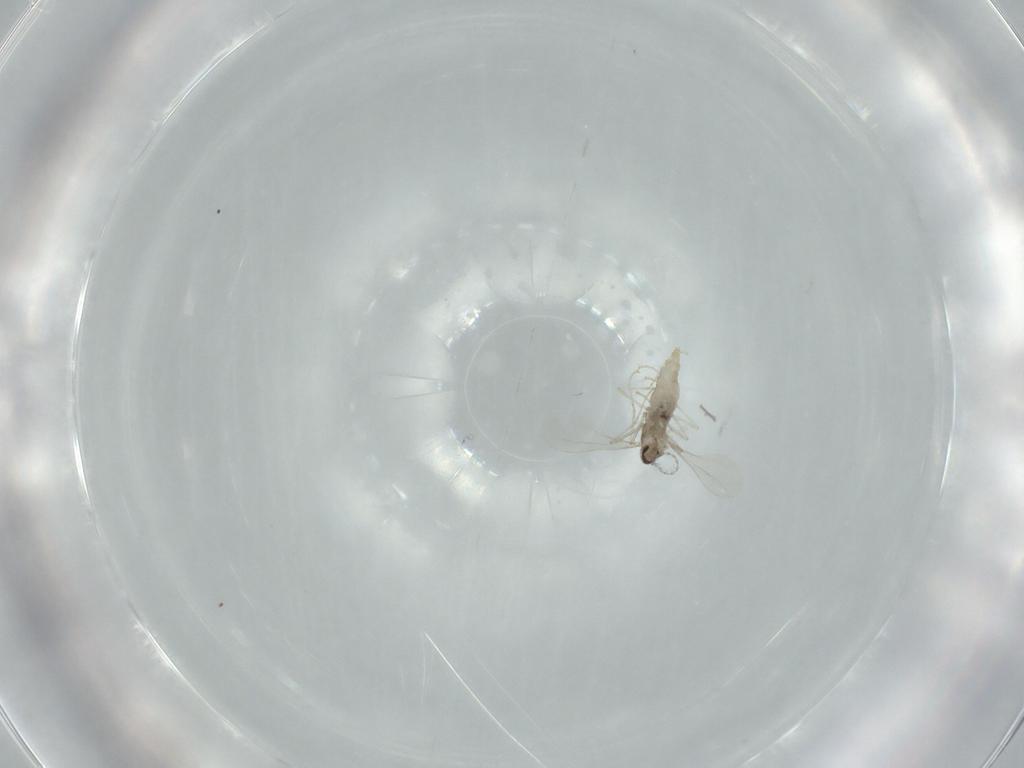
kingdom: Animalia
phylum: Arthropoda
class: Insecta
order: Diptera
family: Cecidomyiidae
